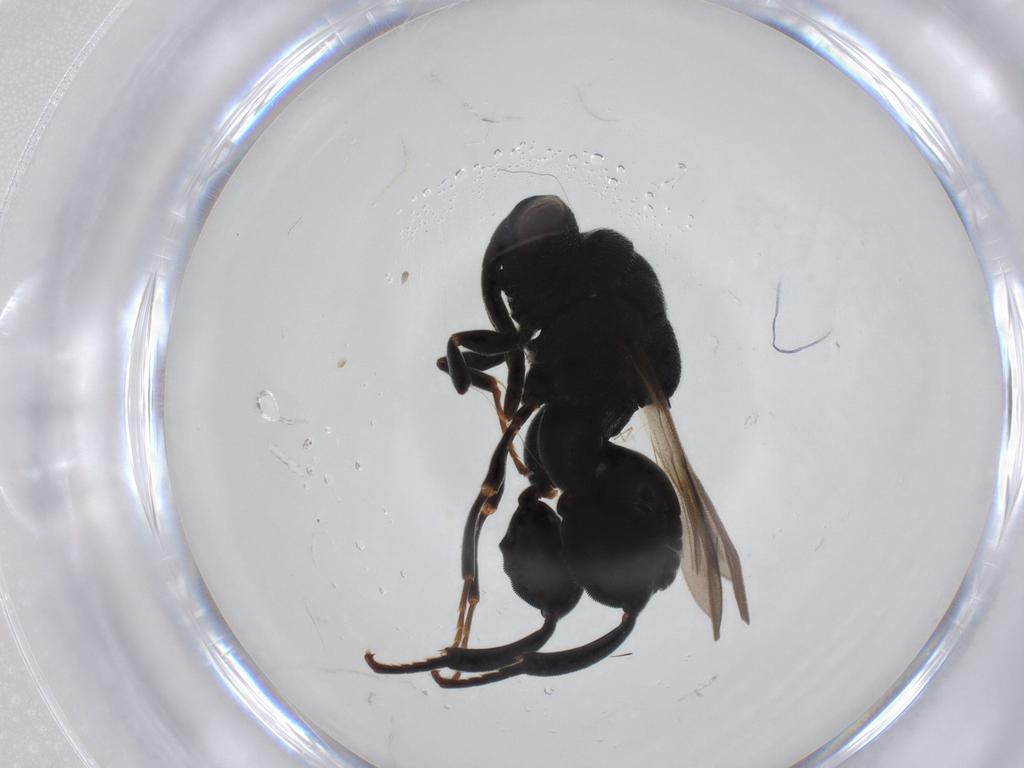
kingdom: Animalia
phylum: Arthropoda
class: Insecta
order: Hymenoptera
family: Chalcididae
